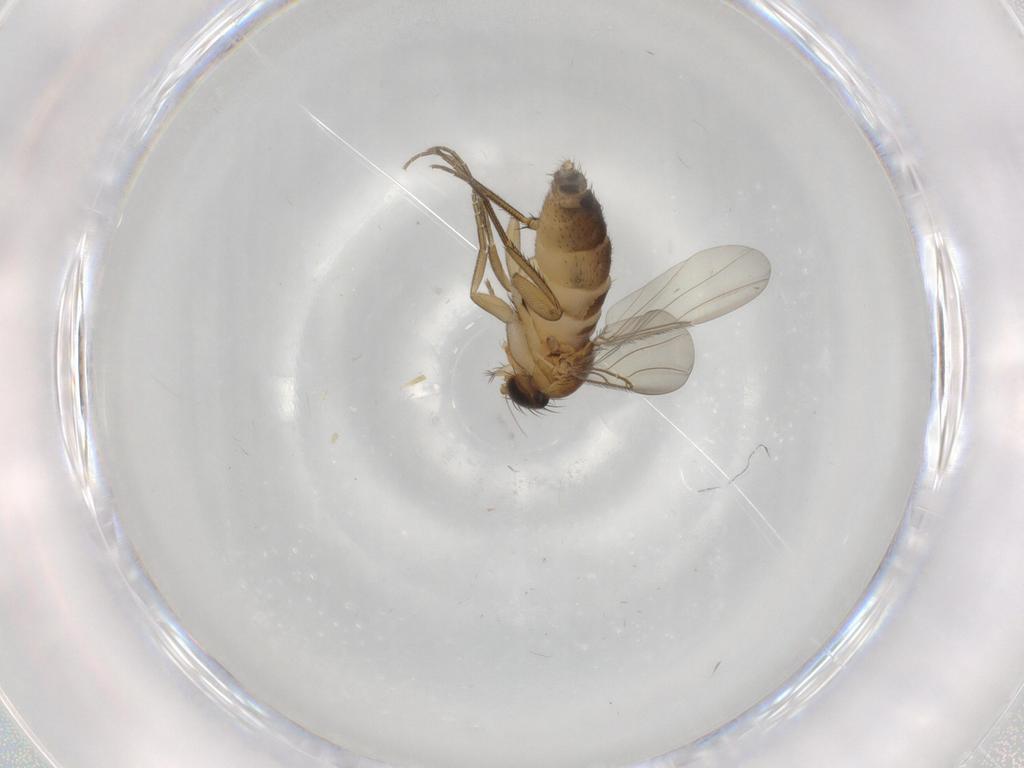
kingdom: Animalia
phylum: Arthropoda
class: Insecta
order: Diptera
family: Phoridae
